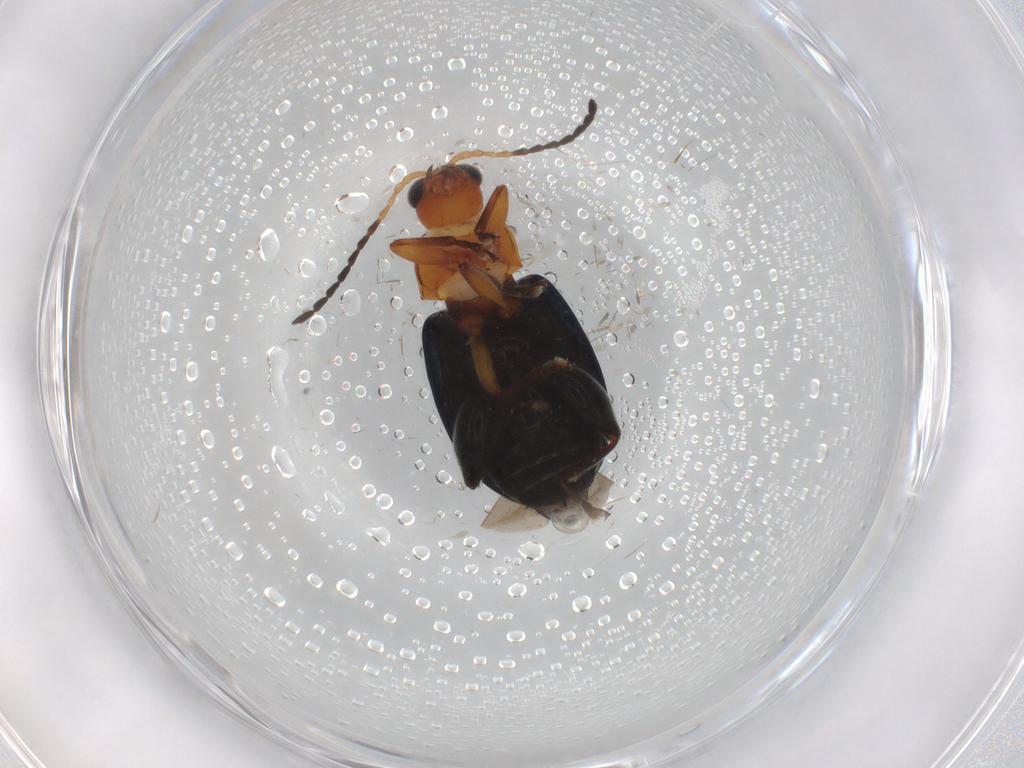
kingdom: Animalia
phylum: Arthropoda
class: Insecta
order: Coleoptera
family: Chrysomelidae
